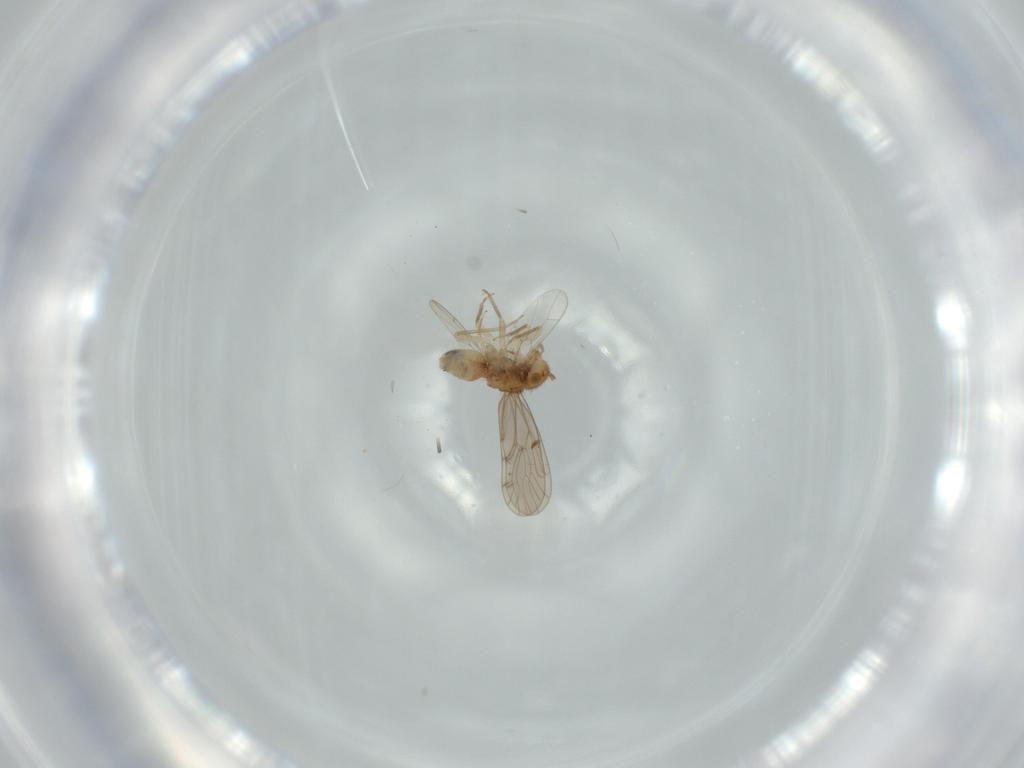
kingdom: Animalia
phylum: Arthropoda
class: Insecta
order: Psocodea
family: Ectopsocidae
